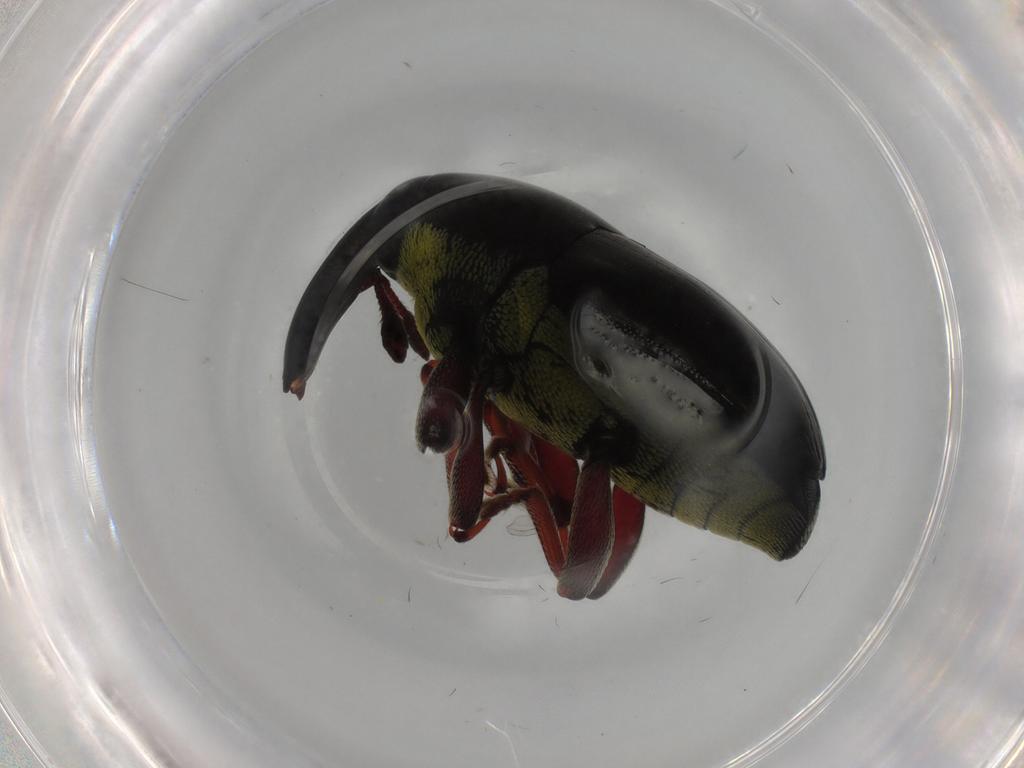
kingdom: Animalia
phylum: Arthropoda
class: Insecta
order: Coleoptera
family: Curculionidae
